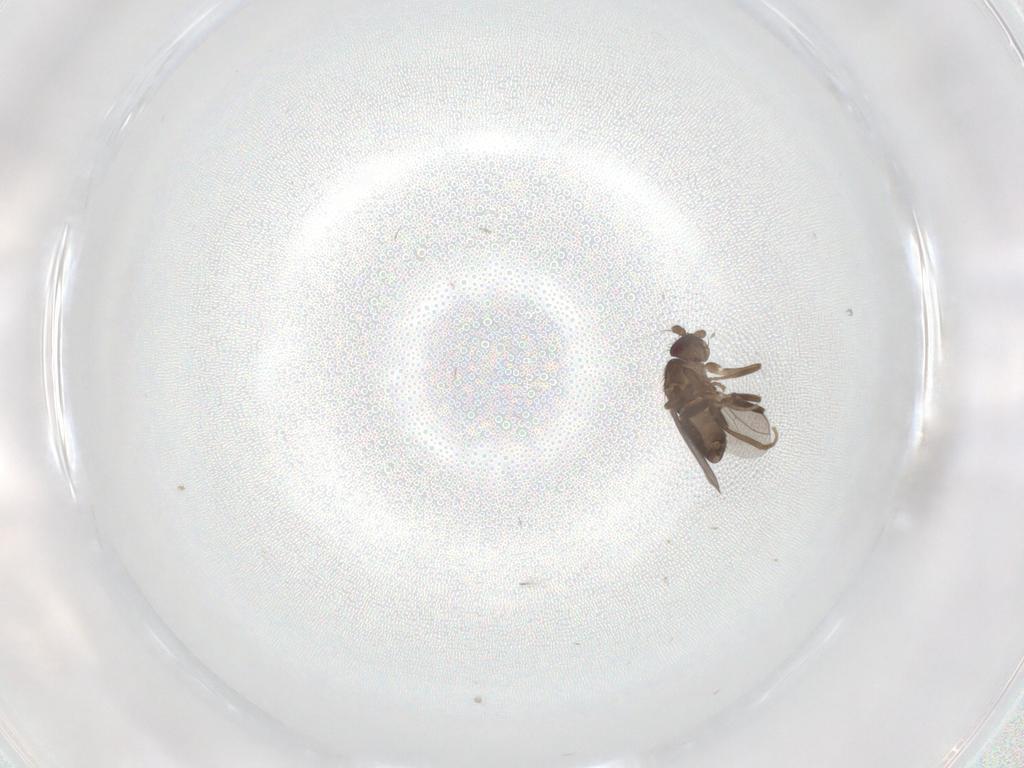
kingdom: Animalia
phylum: Arthropoda
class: Insecta
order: Diptera
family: Sphaeroceridae
